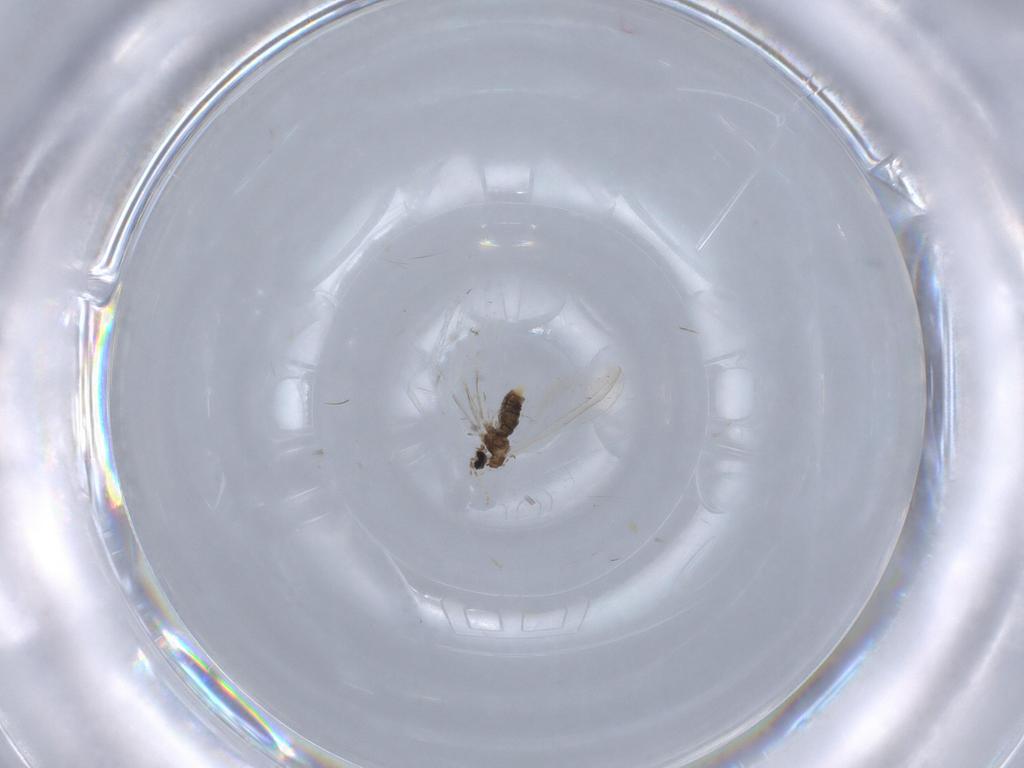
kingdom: Animalia
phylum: Arthropoda
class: Insecta
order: Diptera
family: Cecidomyiidae
